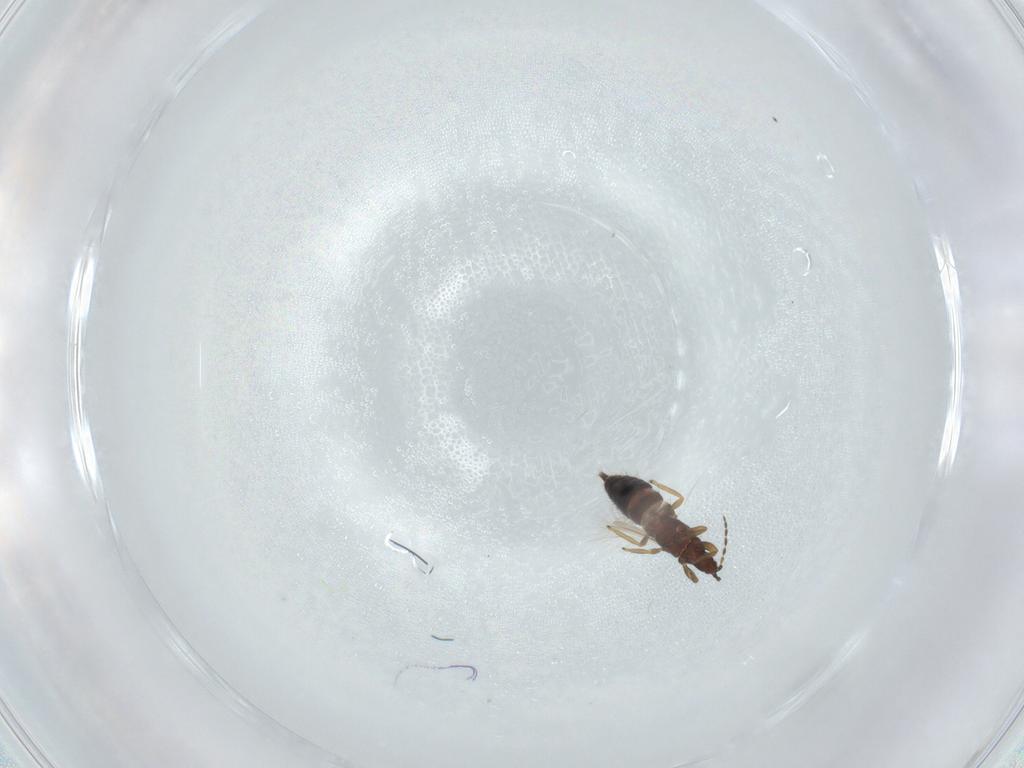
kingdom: Animalia
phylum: Arthropoda
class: Insecta
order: Thysanoptera
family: Phlaeothripidae
